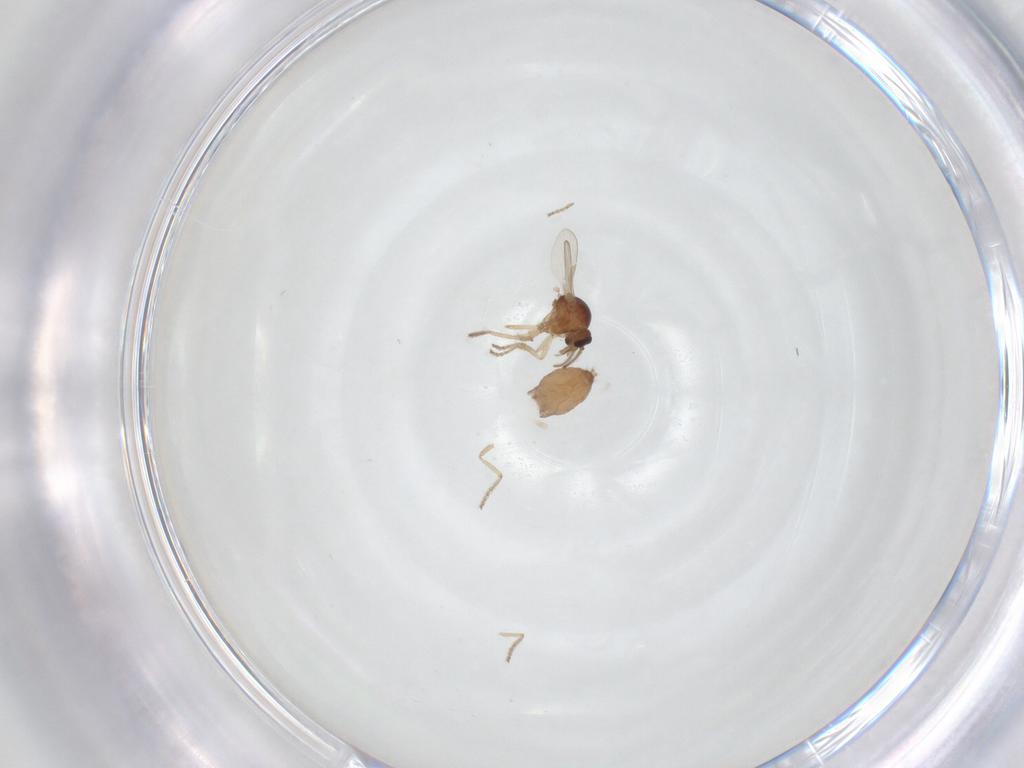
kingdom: Animalia
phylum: Arthropoda
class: Insecta
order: Diptera
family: Ceratopogonidae
